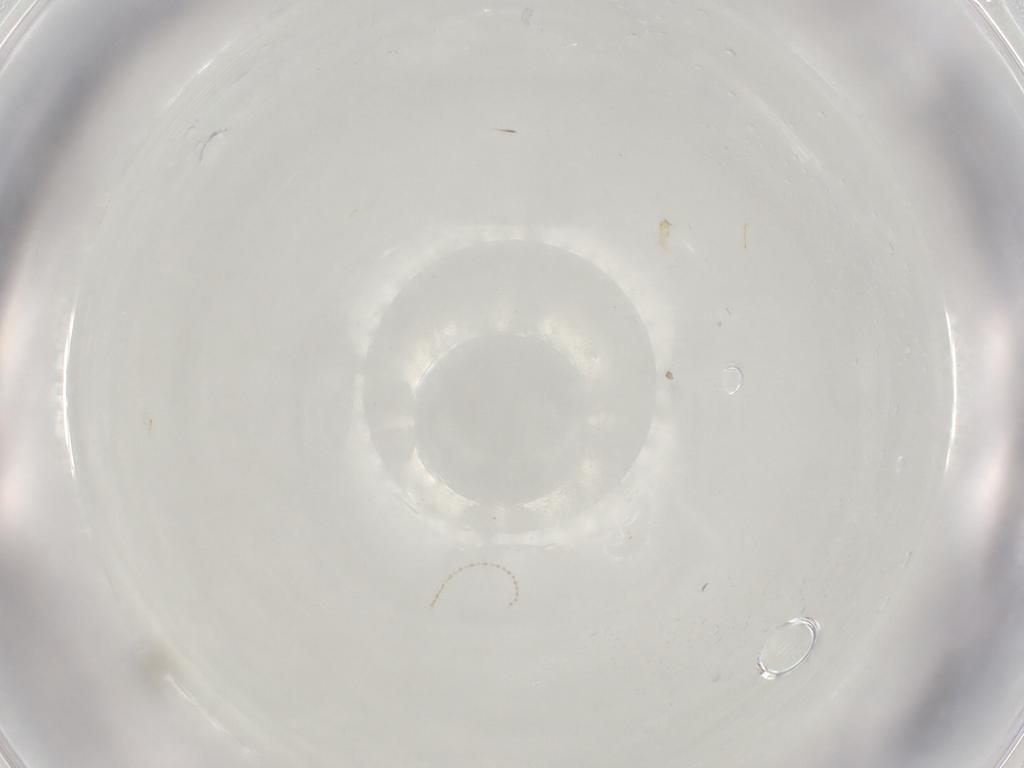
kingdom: Animalia
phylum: Arthropoda
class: Insecta
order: Diptera
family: Cecidomyiidae
